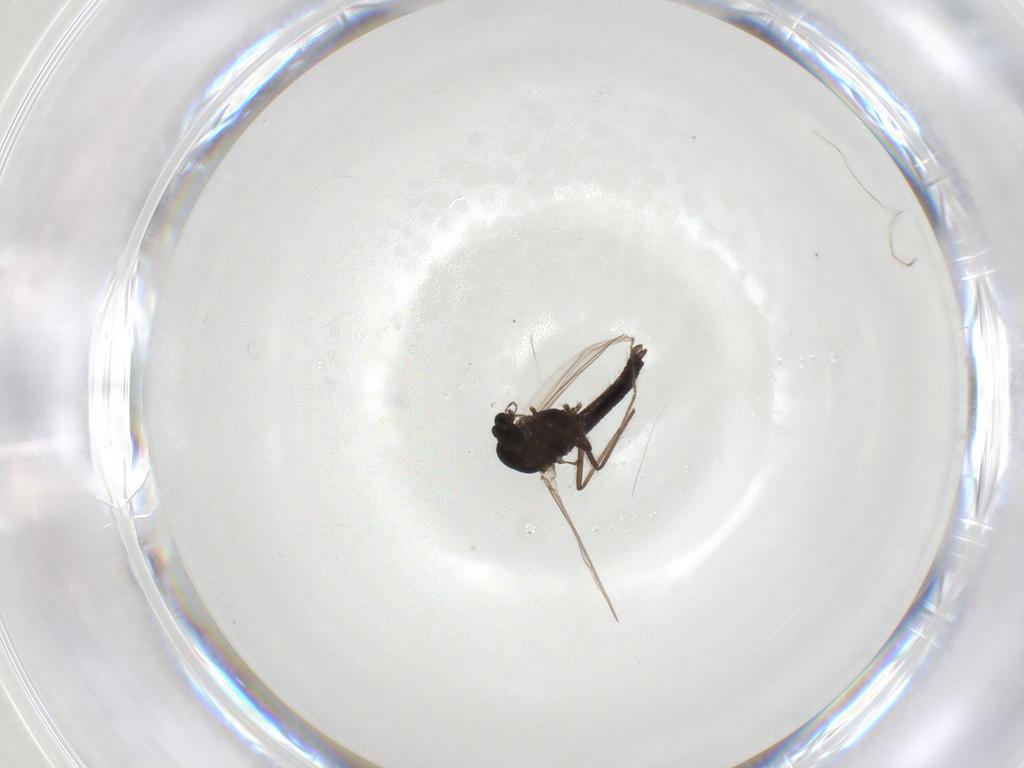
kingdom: Animalia
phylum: Arthropoda
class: Insecta
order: Diptera
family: Chironomidae
